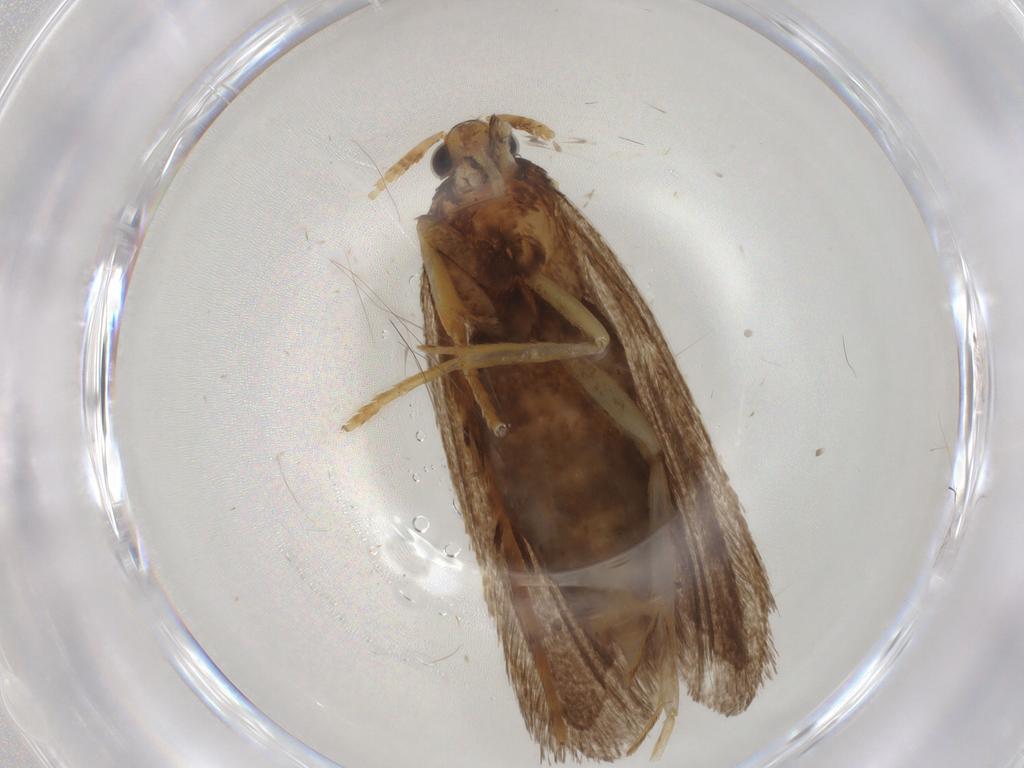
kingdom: Animalia
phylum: Arthropoda
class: Insecta
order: Lepidoptera
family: Lecithoceridae
